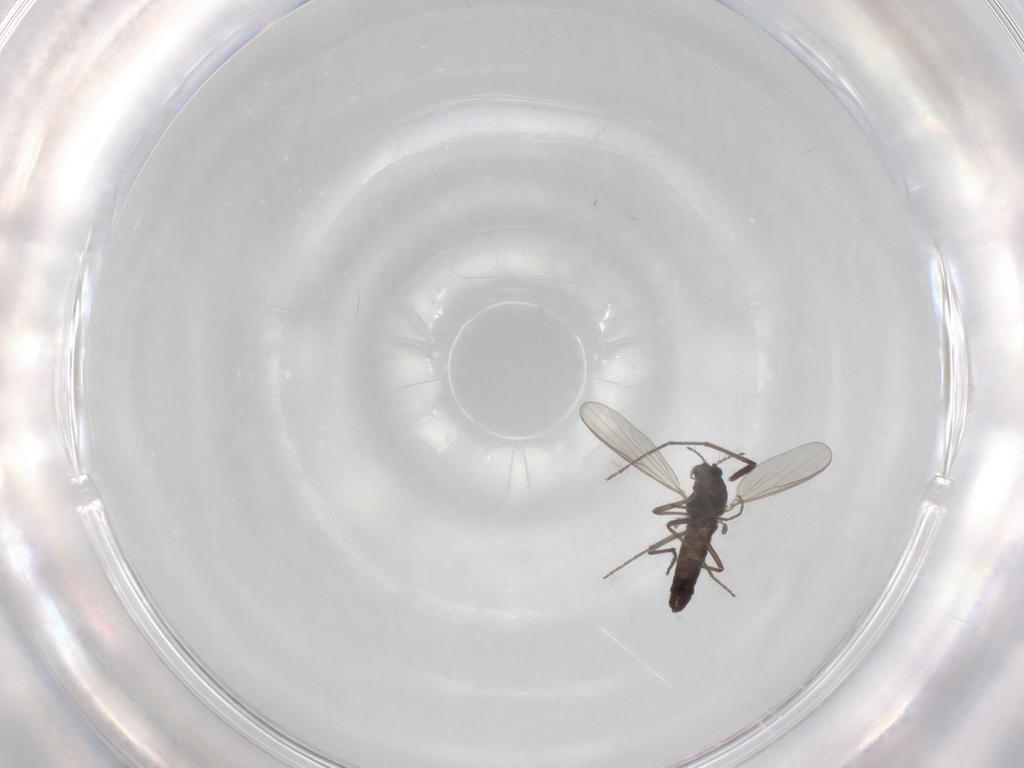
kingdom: Animalia
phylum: Arthropoda
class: Insecta
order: Diptera
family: Chironomidae
